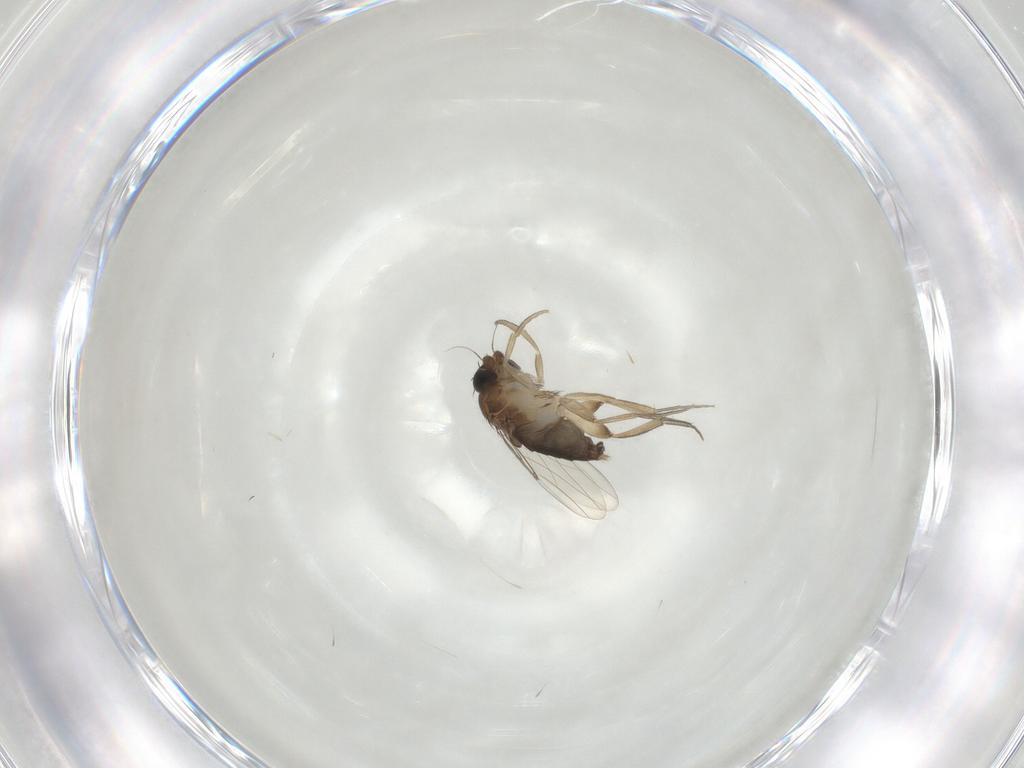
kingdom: Animalia
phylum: Arthropoda
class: Insecta
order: Diptera
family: Phoridae
